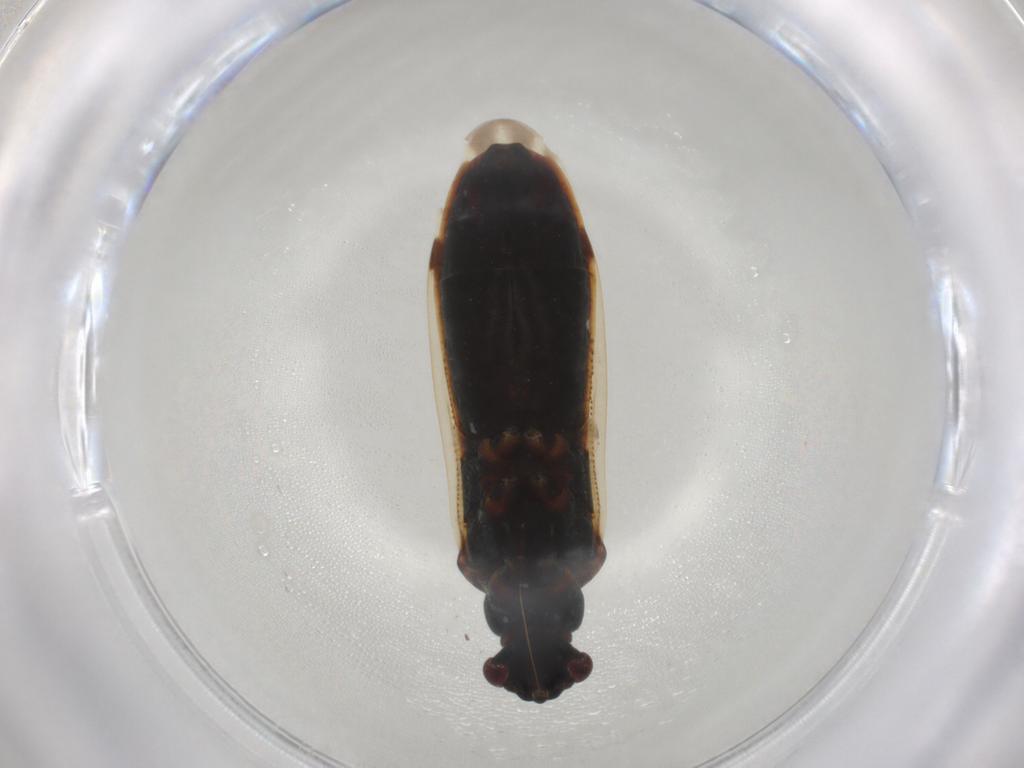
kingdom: Animalia
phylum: Arthropoda
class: Insecta
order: Hemiptera
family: Rhyparochromidae
